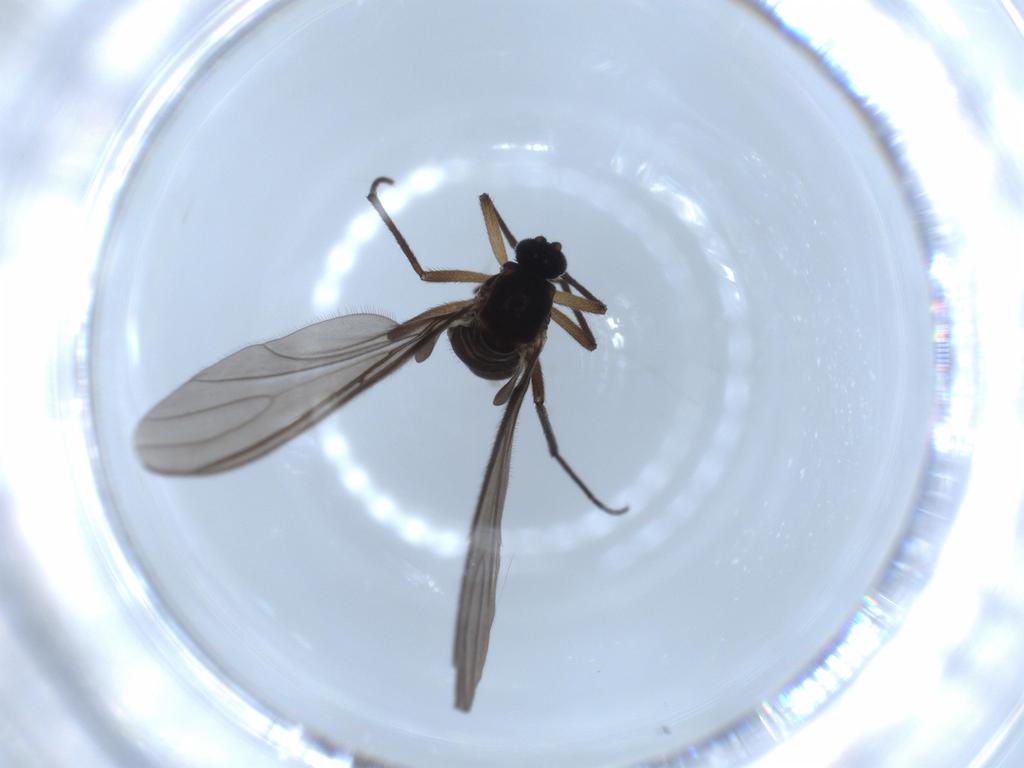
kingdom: Animalia
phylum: Arthropoda
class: Insecta
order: Diptera
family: Sciaridae
